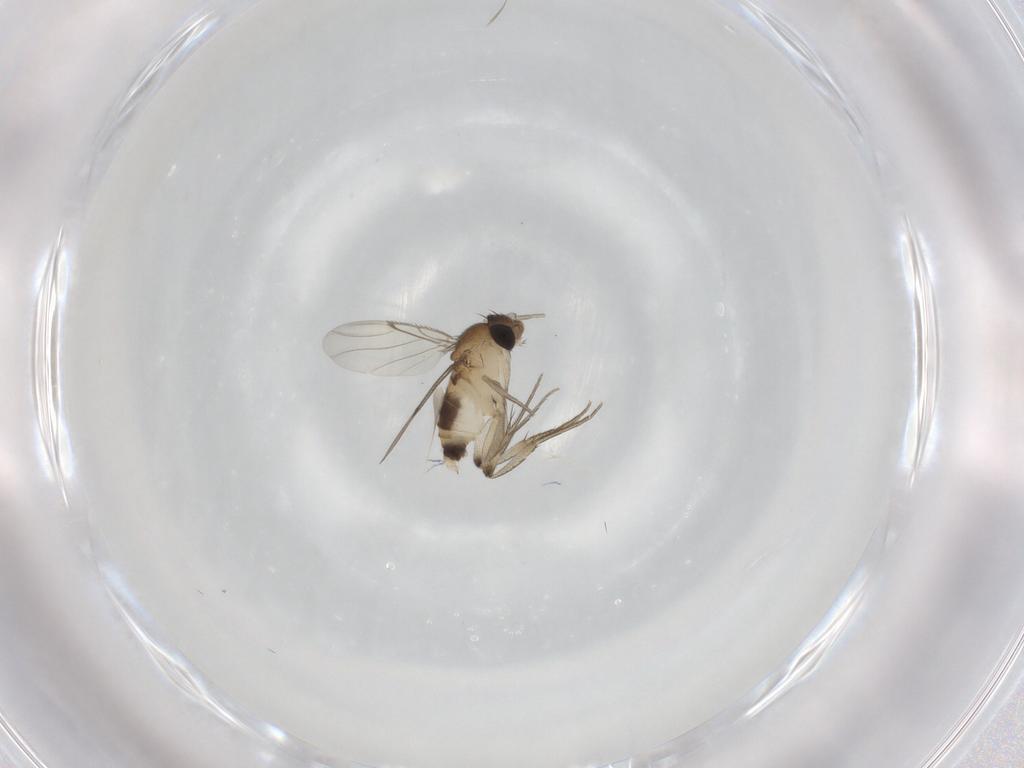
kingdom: Animalia
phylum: Arthropoda
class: Insecta
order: Diptera
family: Phoridae
